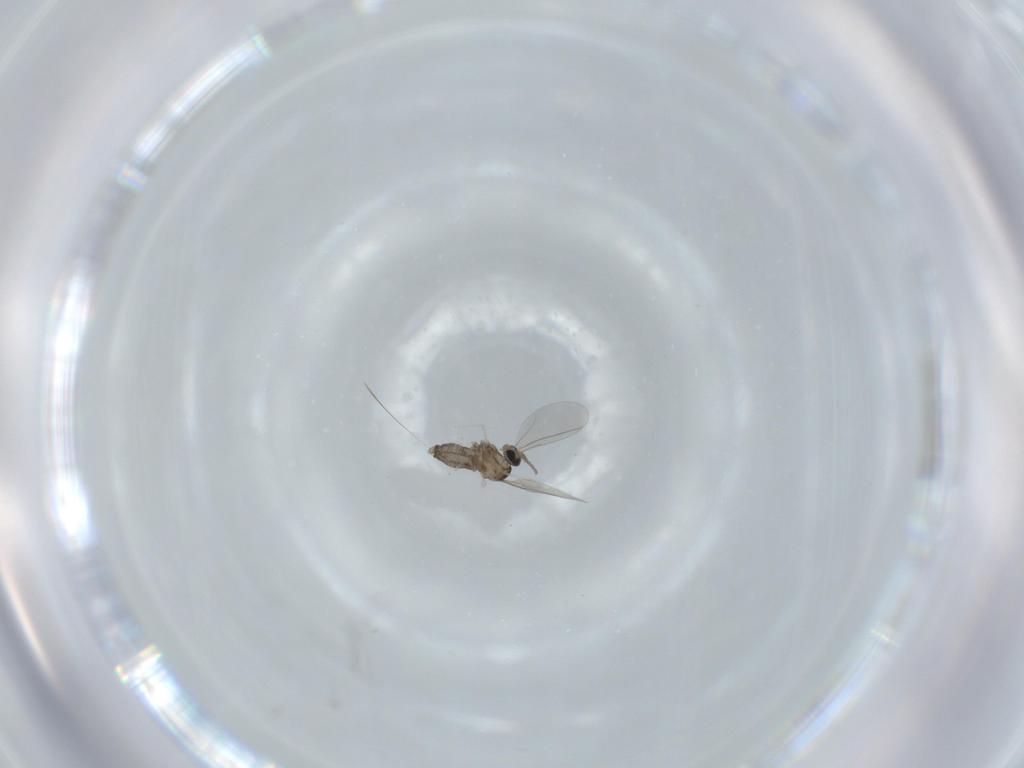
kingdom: Animalia
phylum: Arthropoda
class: Insecta
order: Diptera
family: Cecidomyiidae
